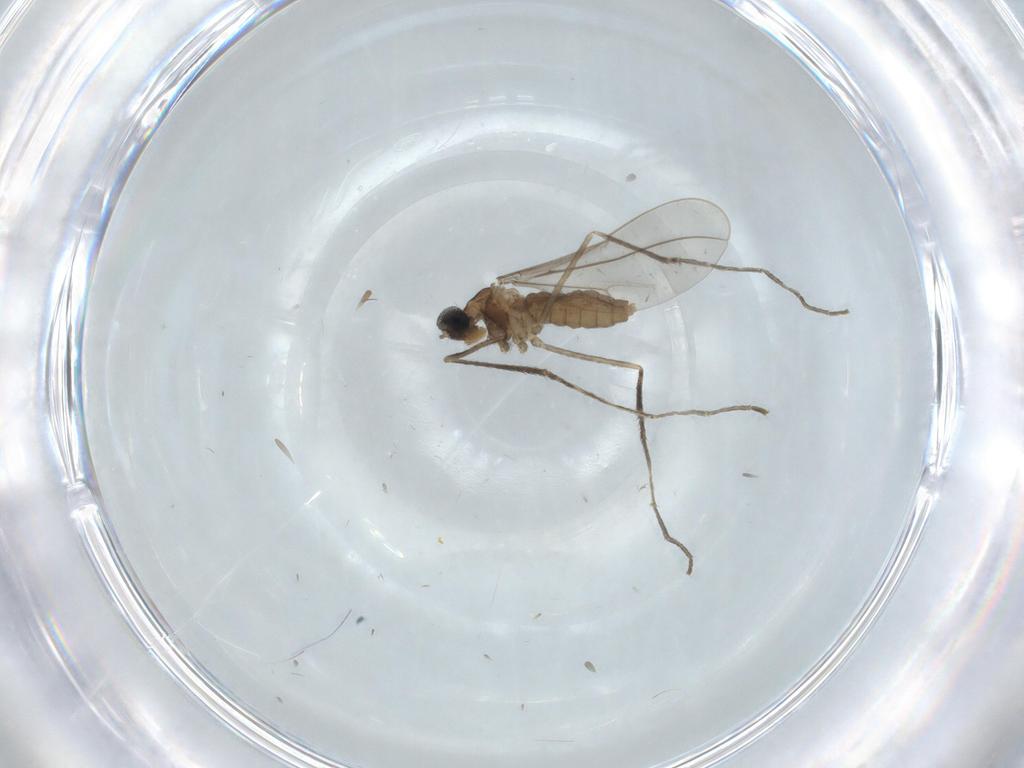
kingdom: Animalia
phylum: Arthropoda
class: Insecta
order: Diptera
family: Cecidomyiidae
